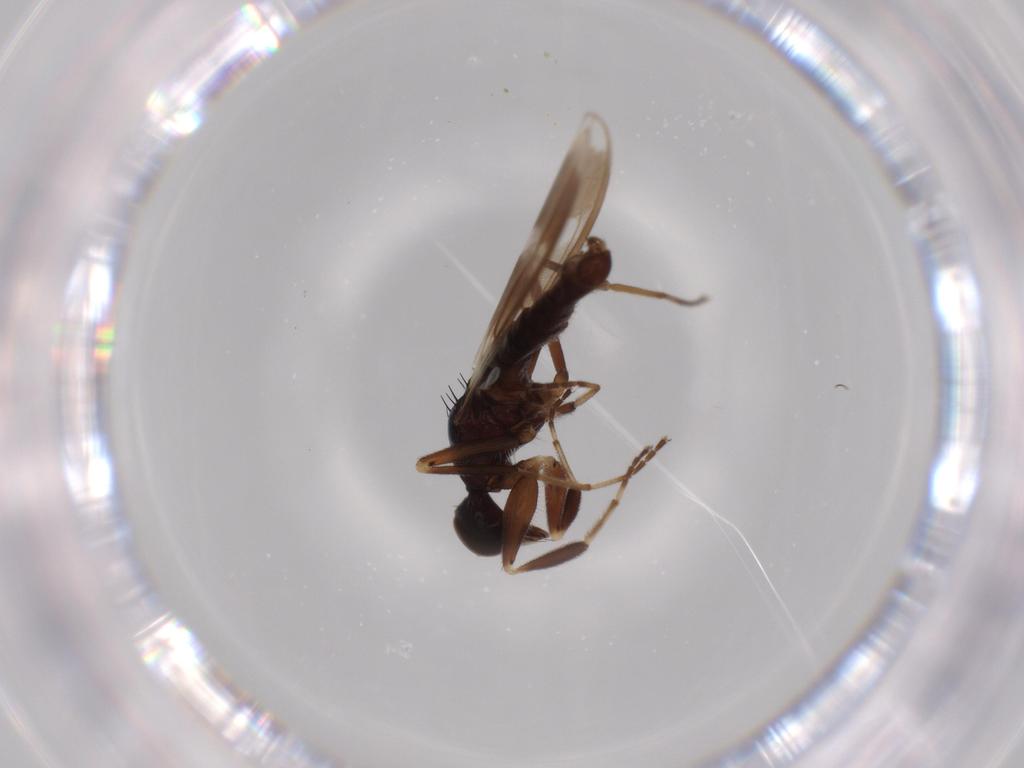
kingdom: Animalia
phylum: Arthropoda
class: Insecta
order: Diptera
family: Hybotidae
